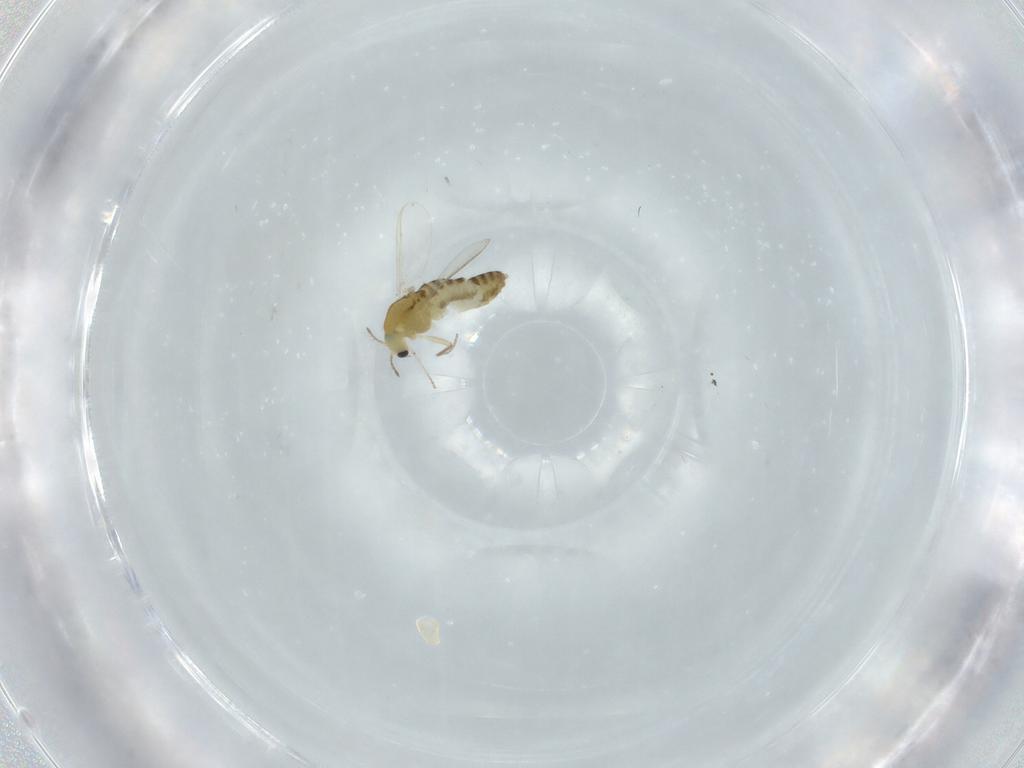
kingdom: Animalia
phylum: Arthropoda
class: Insecta
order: Diptera
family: Chironomidae
